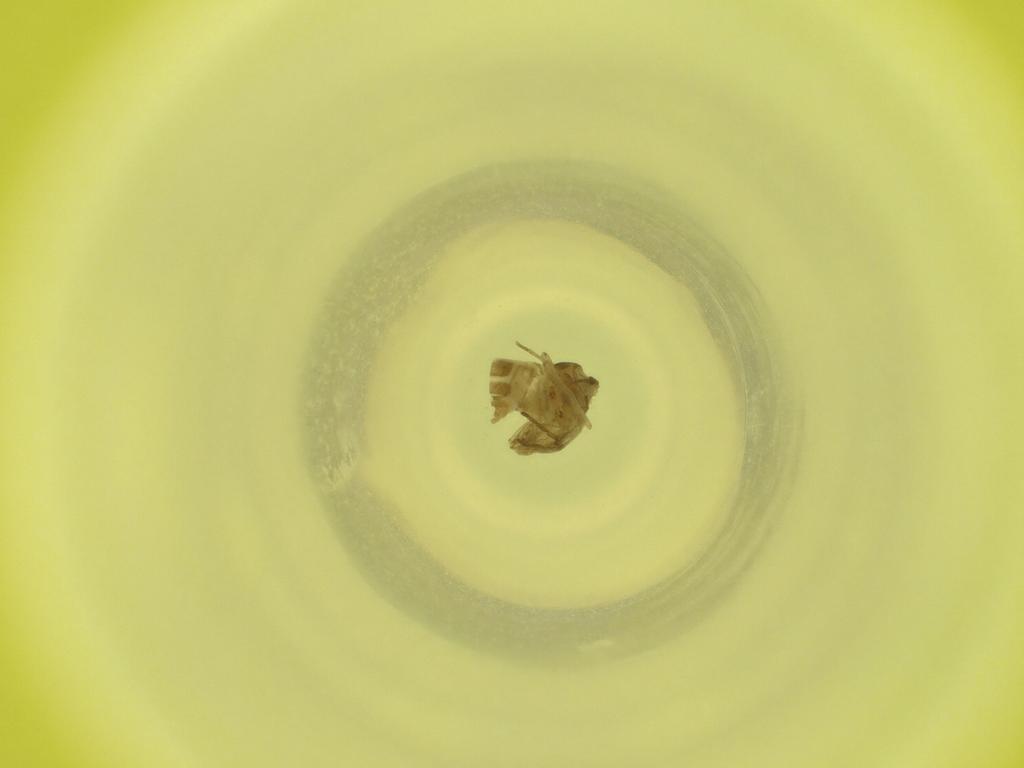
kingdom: Animalia
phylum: Arthropoda
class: Insecta
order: Diptera
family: Cecidomyiidae
